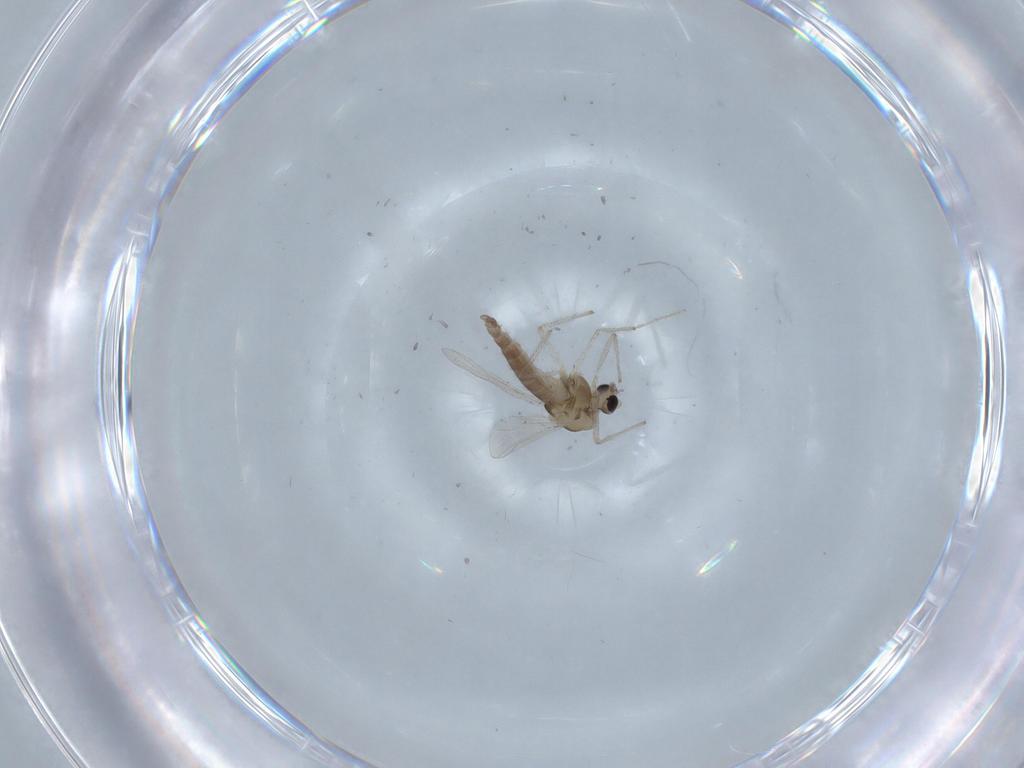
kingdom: Animalia
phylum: Arthropoda
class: Insecta
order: Diptera
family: Chironomidae
